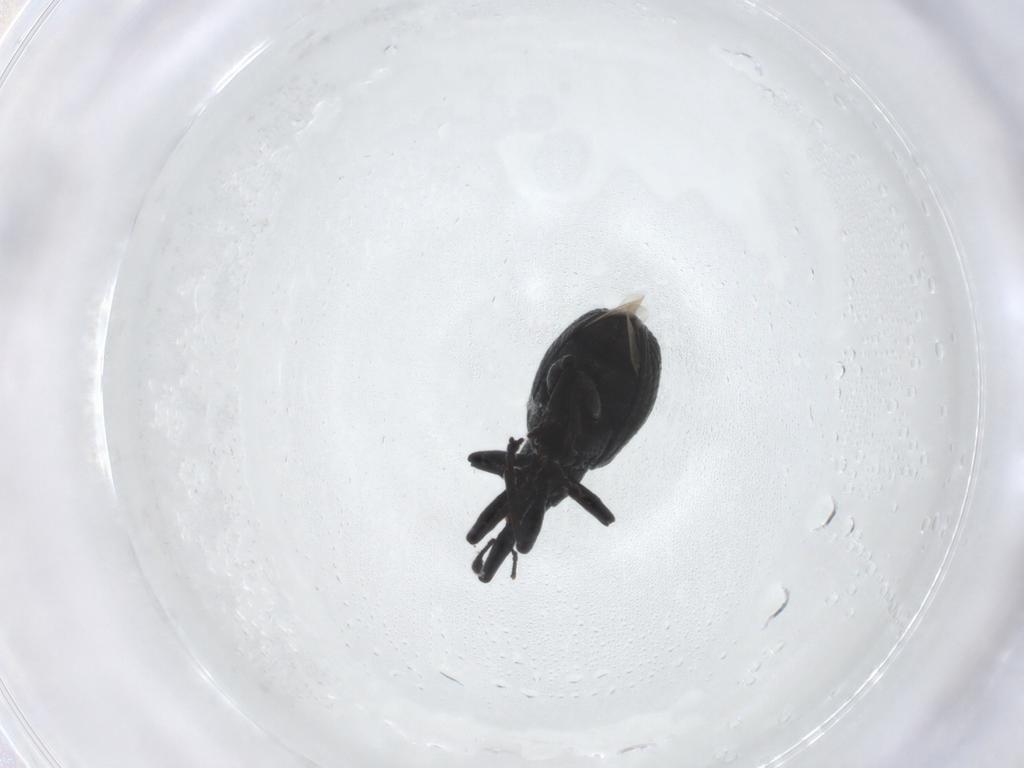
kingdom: Animalia
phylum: Arthropoda
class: Insecta
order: Coleoptera
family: Brentidae
